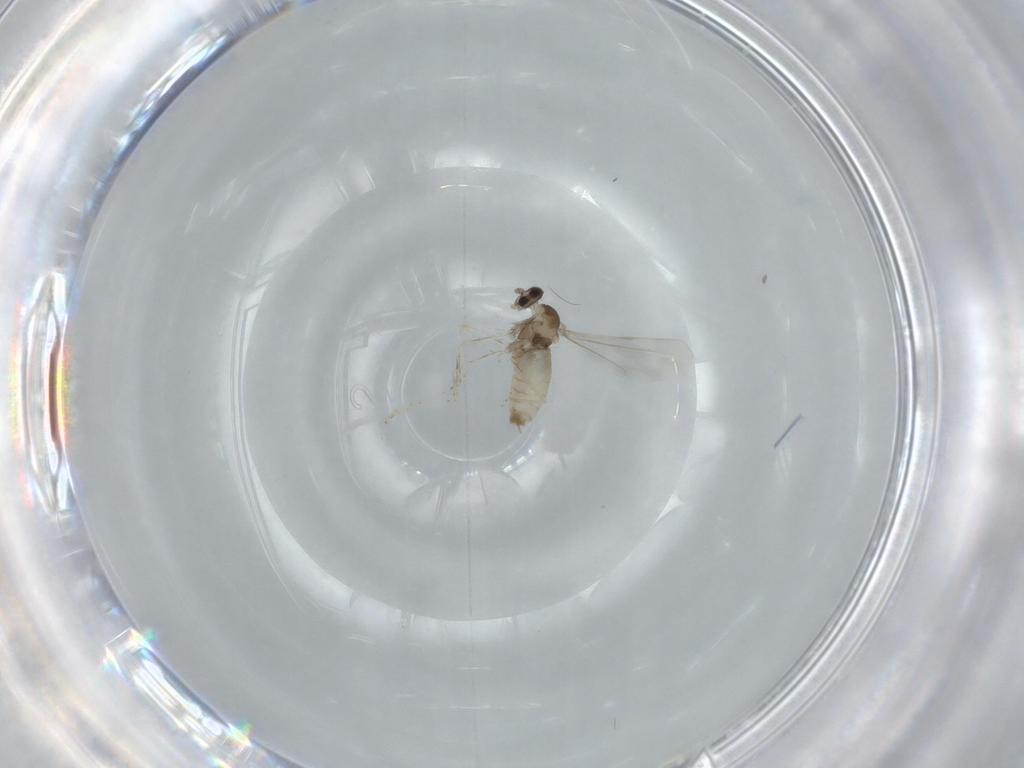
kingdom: Animalia
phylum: Arthropoda
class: Insecta
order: Diptera
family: Cecidomyiidae
